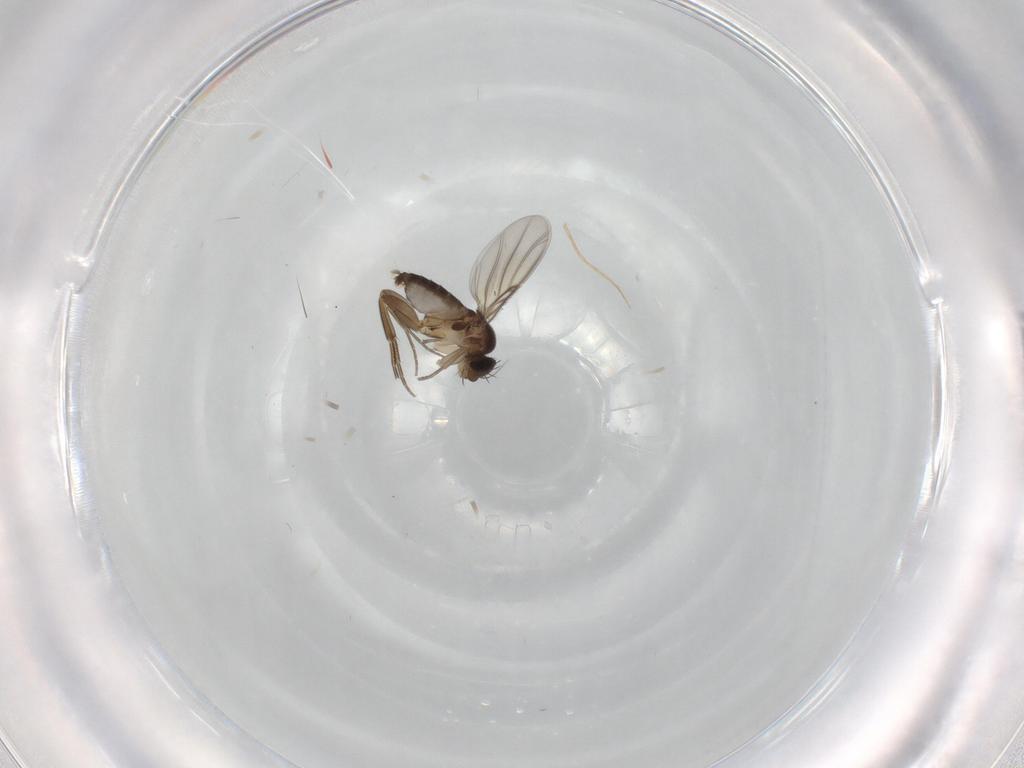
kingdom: Animalia
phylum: Arthropoda
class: Insecta
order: Diptera
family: Phoridae
